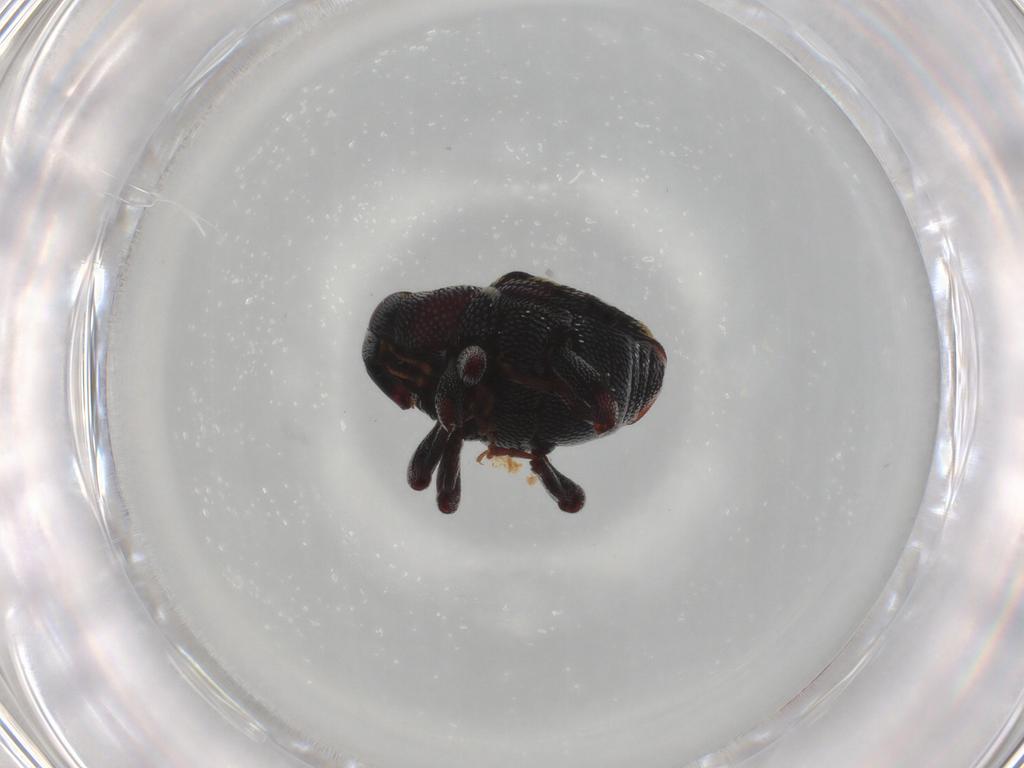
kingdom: Animalia
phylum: Arthropoda
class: Insecta
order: Coleoptera
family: Curculionidae
